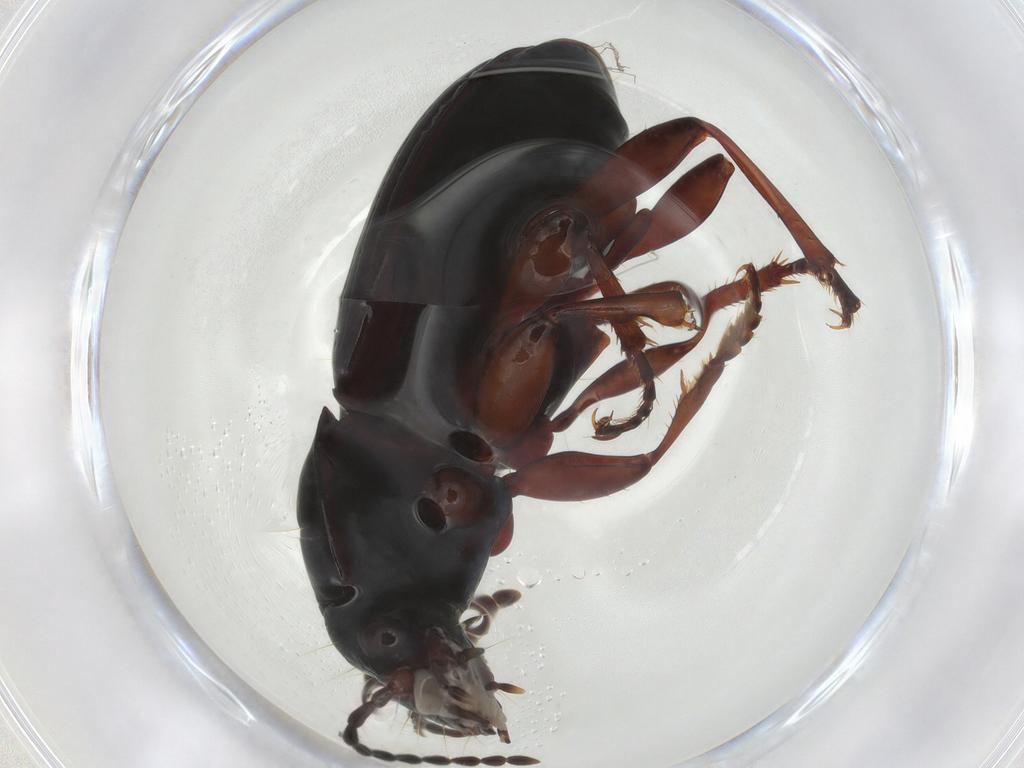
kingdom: Animalia
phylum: Arthropoda
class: Insecta
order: Coleoptera
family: Carabidae
